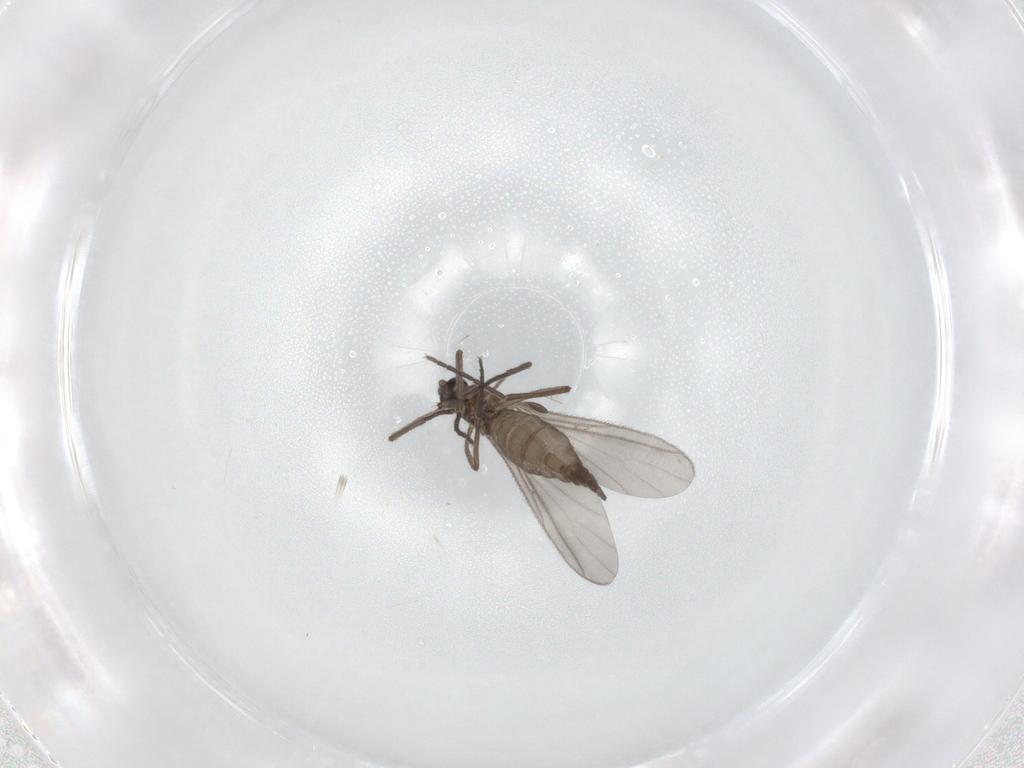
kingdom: Animalia
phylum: Arthropoda
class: Insecta
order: Diptera
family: Sciaridae
